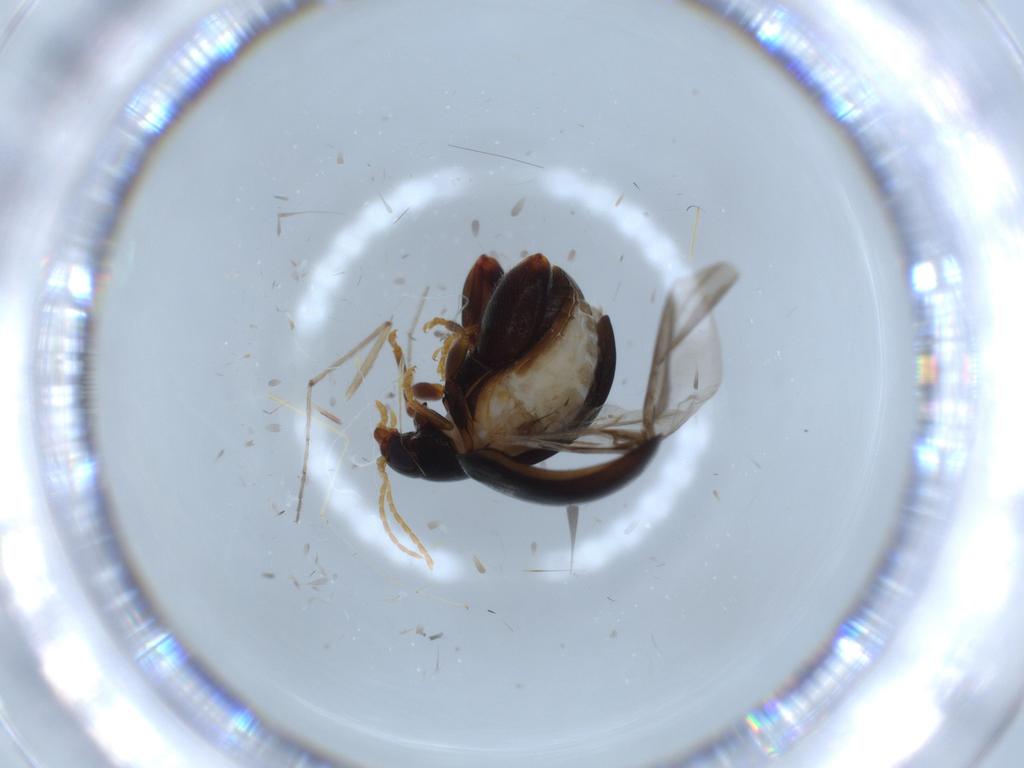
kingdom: Animalia
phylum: Arthropoda
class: Insecta
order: Coleoptera
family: Chrysomelidae
